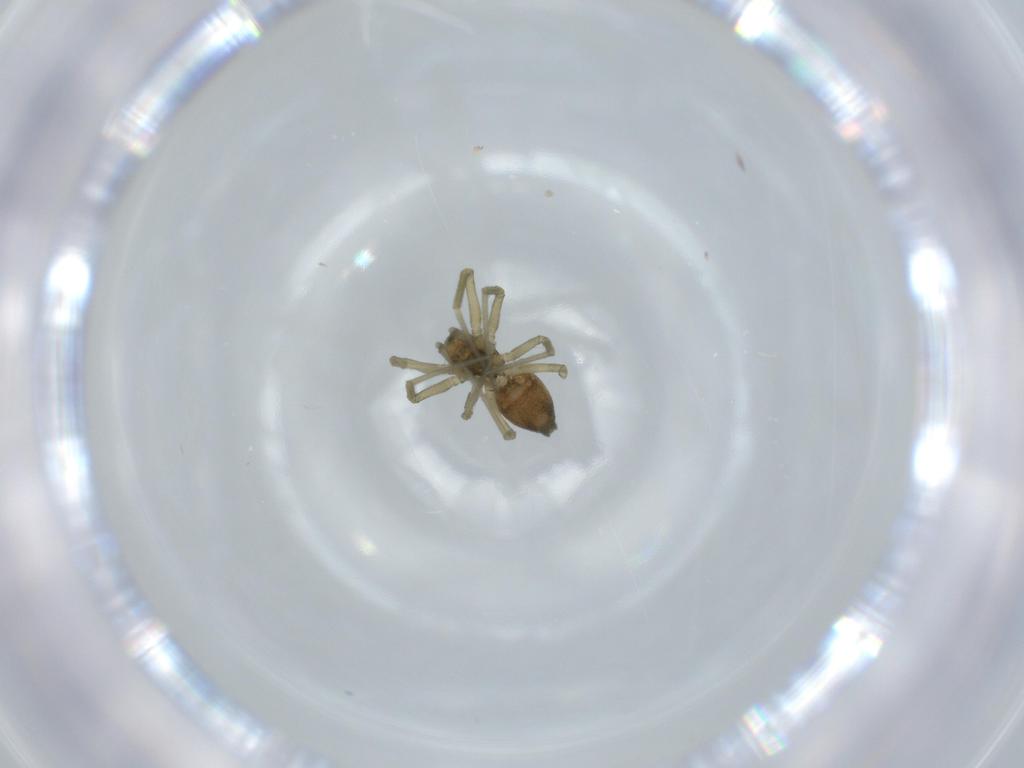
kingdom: Animalia
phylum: Arthropoda
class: Arachnida
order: Araneae
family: Linyphiidae
